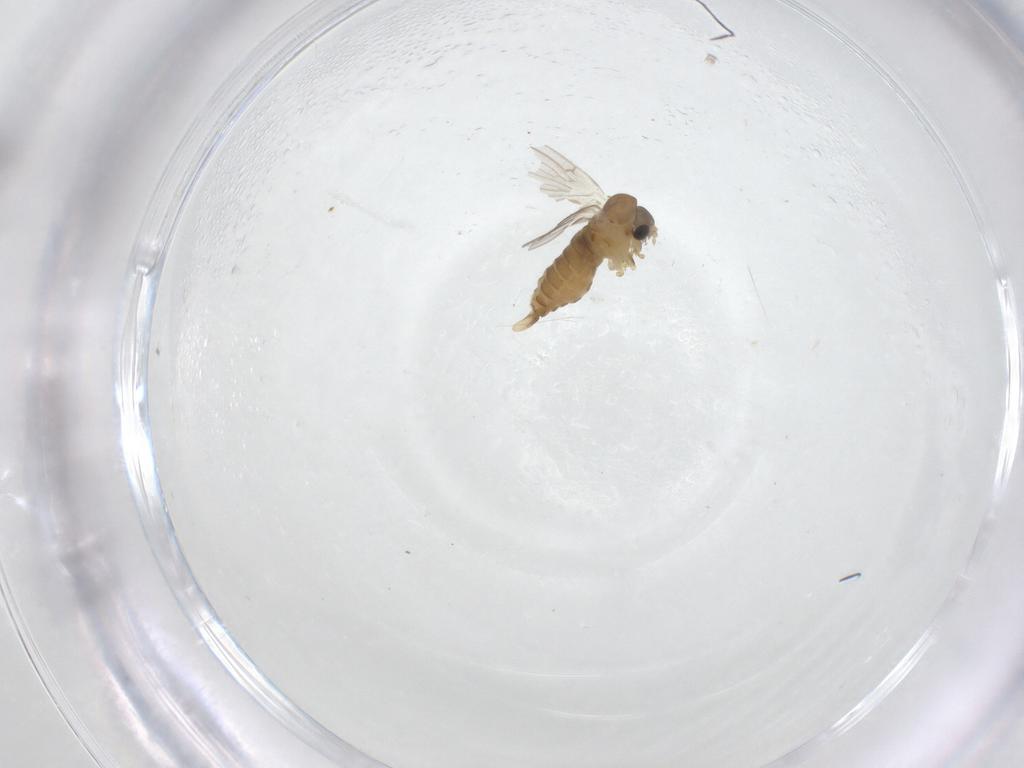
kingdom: Animalia
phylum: Arthropoda
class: Insecta
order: Diptera
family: Psychodidae
